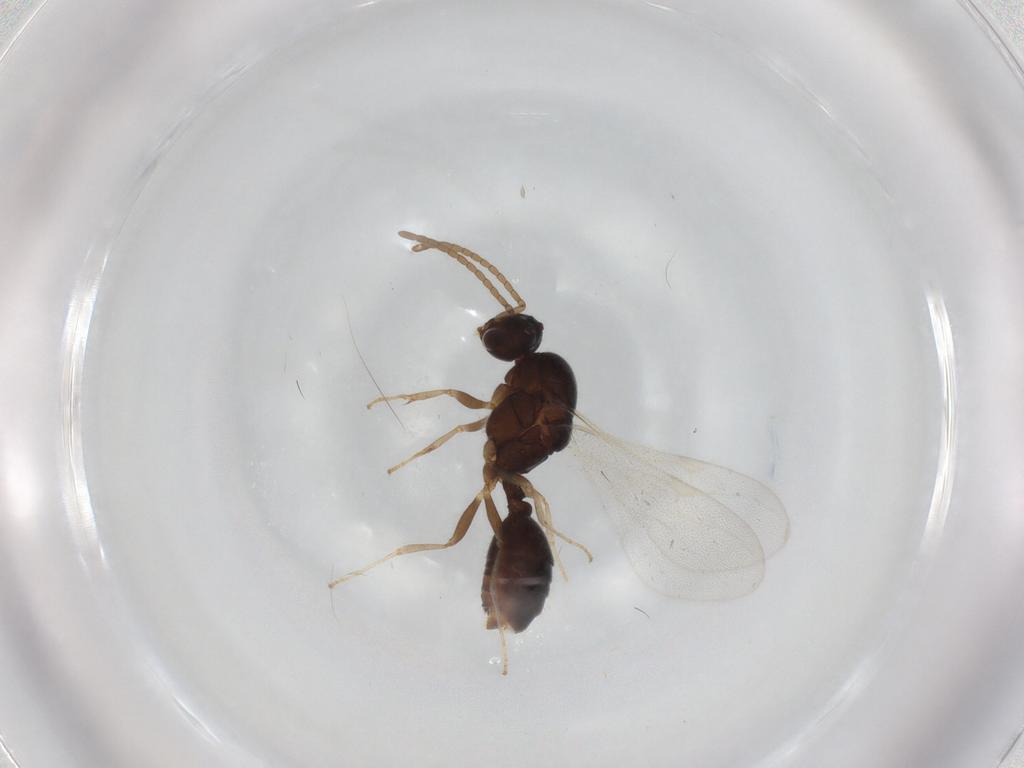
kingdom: Animalia
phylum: Arthropoda
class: Insecta
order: Hymenoptera
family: Formicidae
